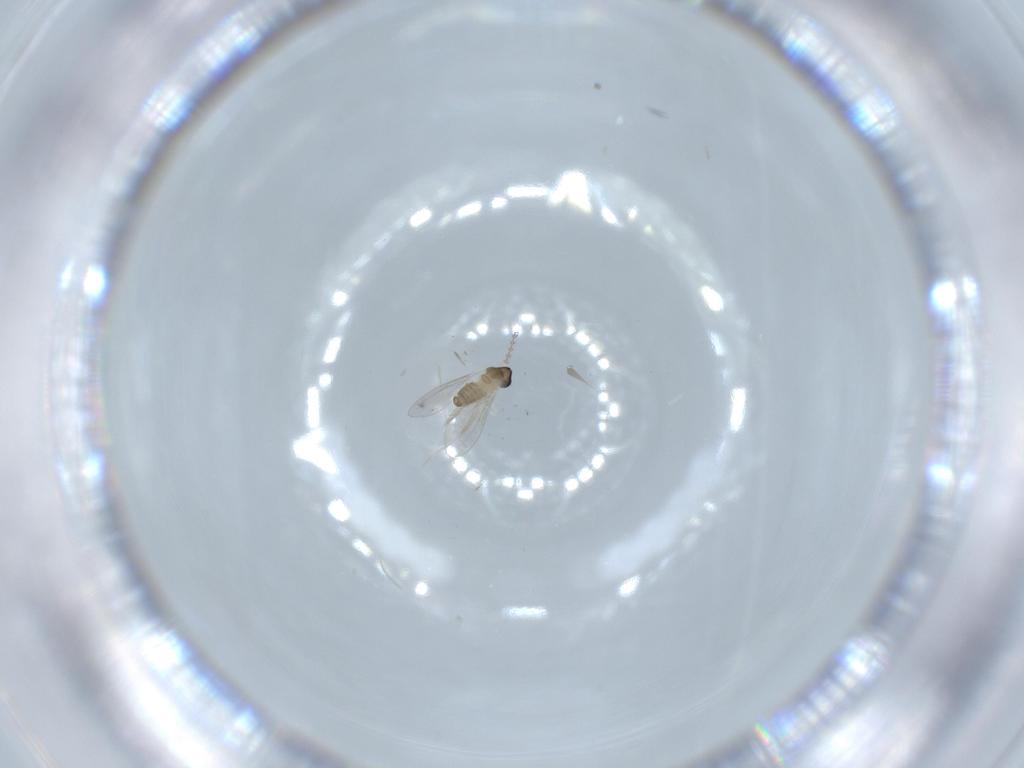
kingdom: Animalia
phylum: Arthropoda
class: Insecta
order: Diptera
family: Cecidomyiidae
